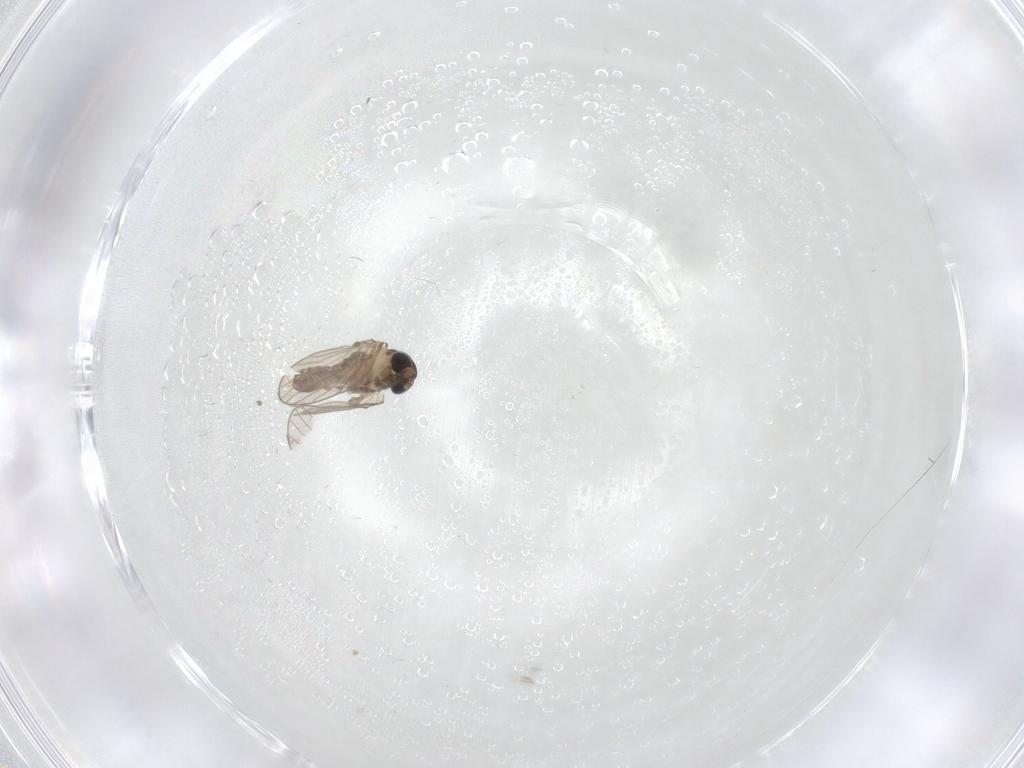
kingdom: Animalia
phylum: Arthropoda
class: Insecta
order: Diptera
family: Psychodidae
